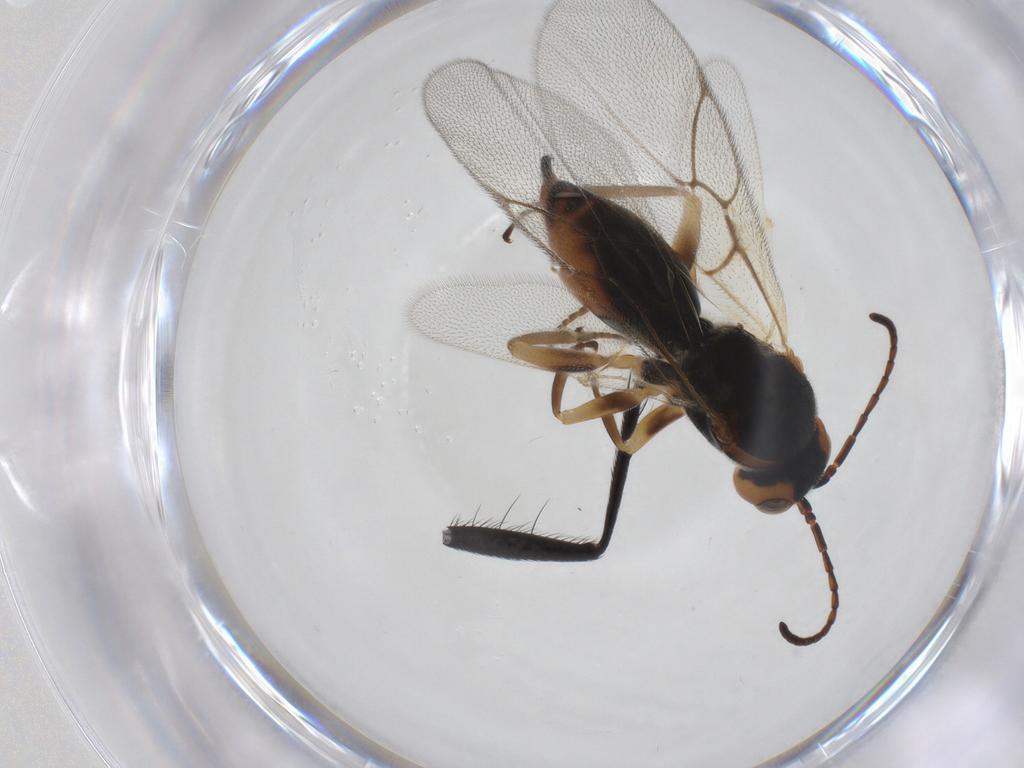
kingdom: Animalia
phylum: Arthropoda
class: Insecta
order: Hymenoptera
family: Cynipidae
